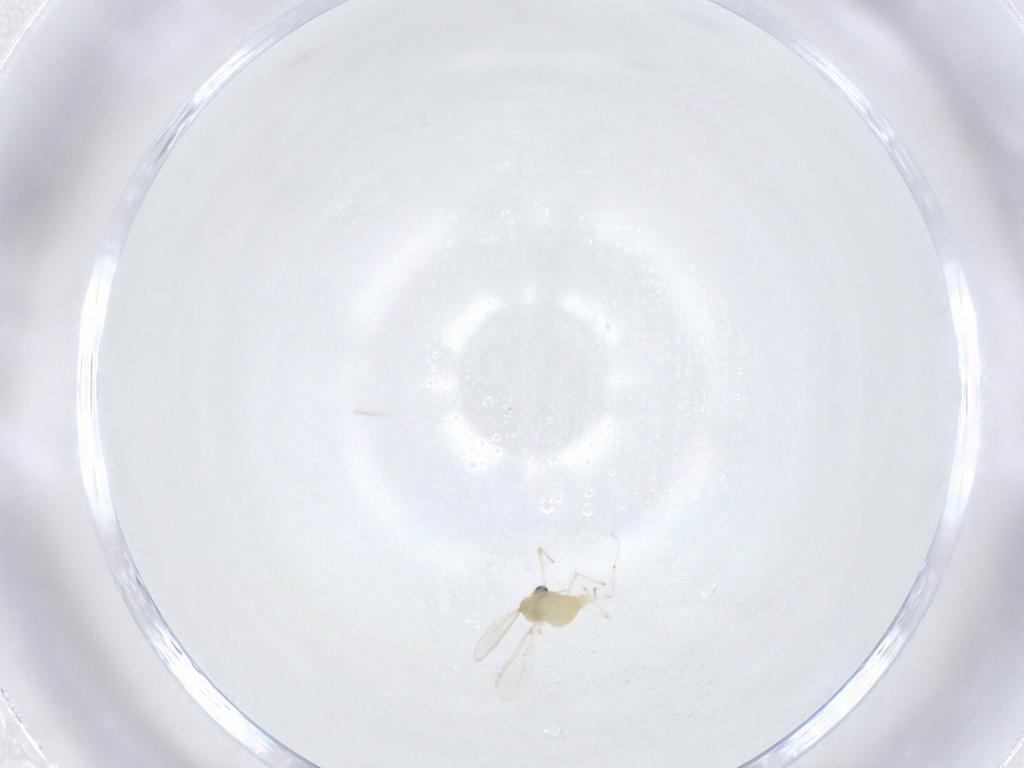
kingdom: Animalia
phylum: Arthropoda
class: Insecta
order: Diptera
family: Chironomidae
